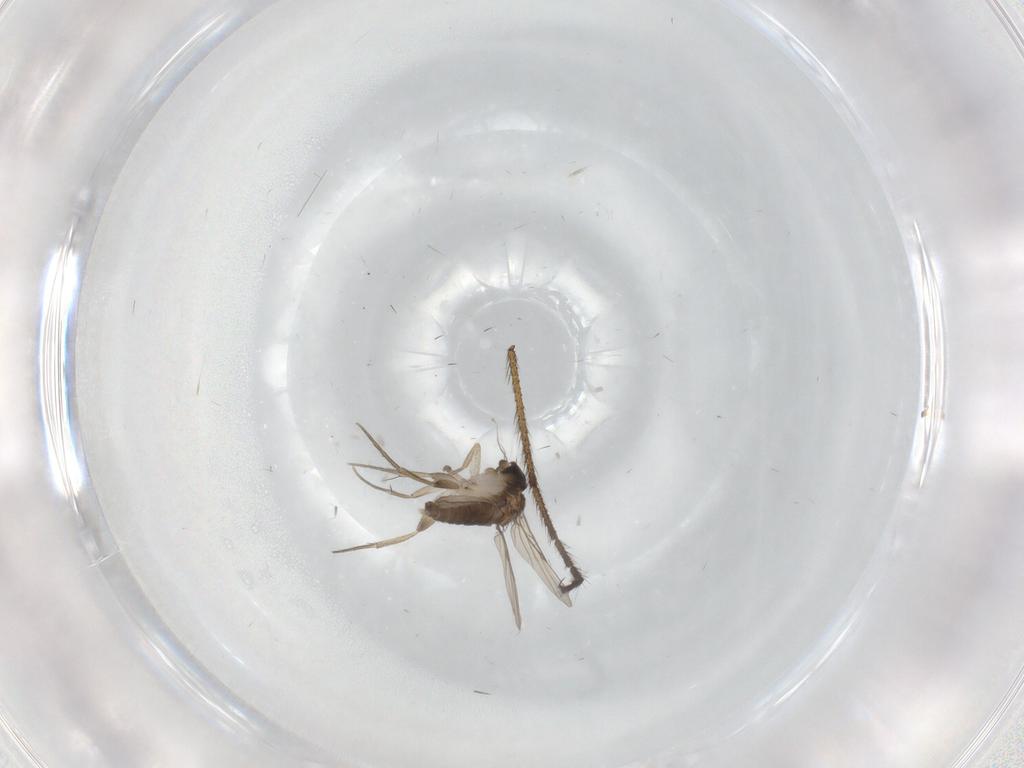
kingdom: Animalia
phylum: Arthropoda
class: Insecta
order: Diptera
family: Phoridae
